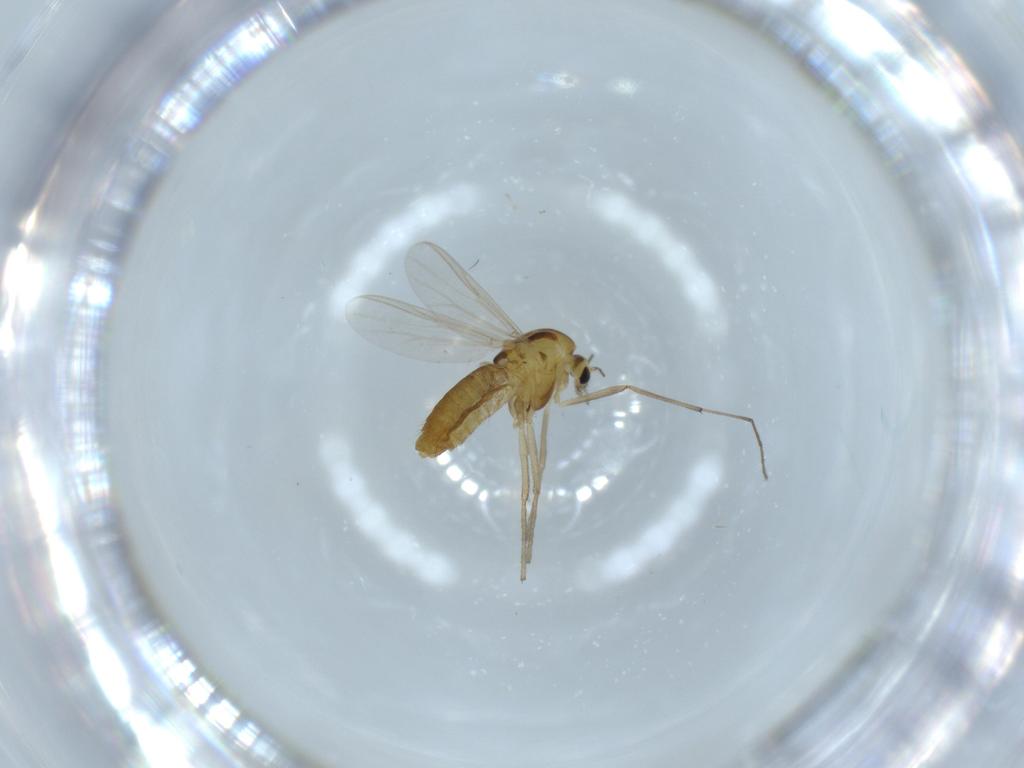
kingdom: Animalia
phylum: Arthropoda
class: Insecta
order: Diptera
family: Chironomidae
